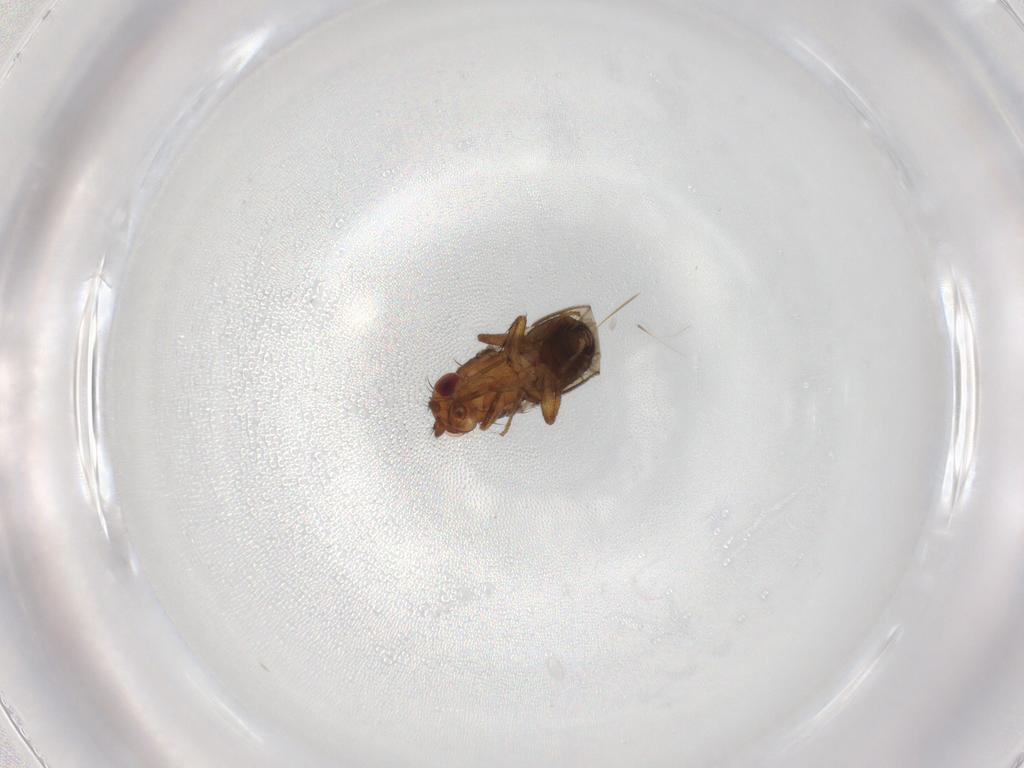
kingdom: Animalia
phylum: Arthropoda
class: Insecta
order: Diptera
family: Sphaeroceridae
